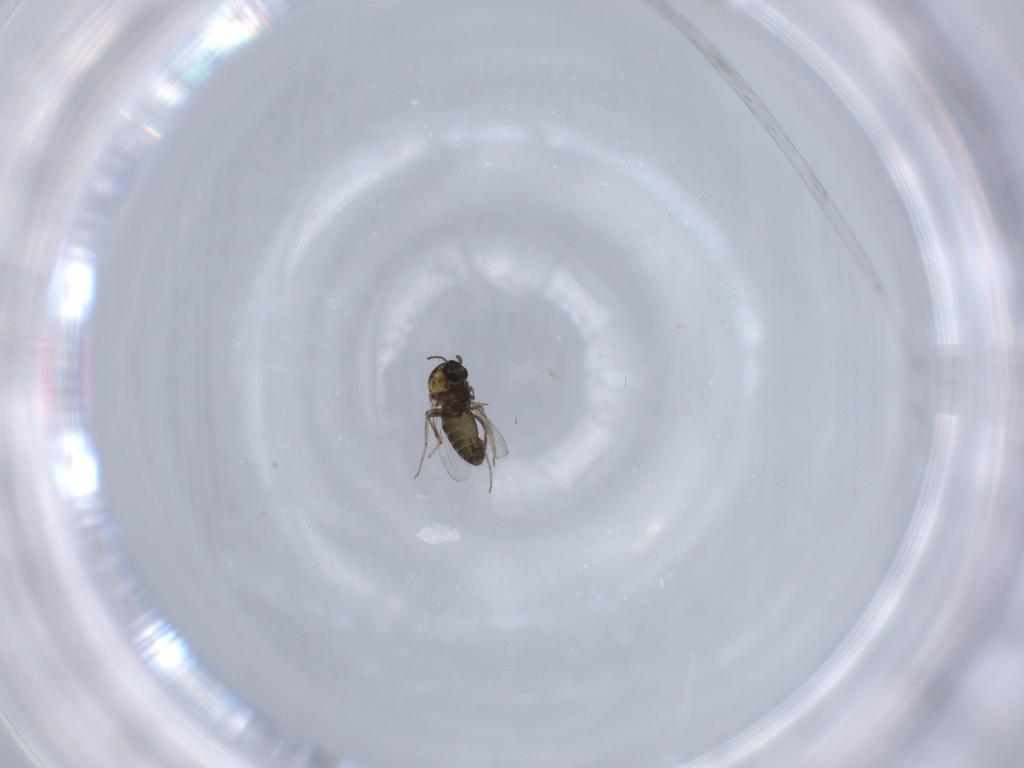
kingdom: Animalia
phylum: Arthropoda
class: Insecta
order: Diptera
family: Ceratopogonidae
